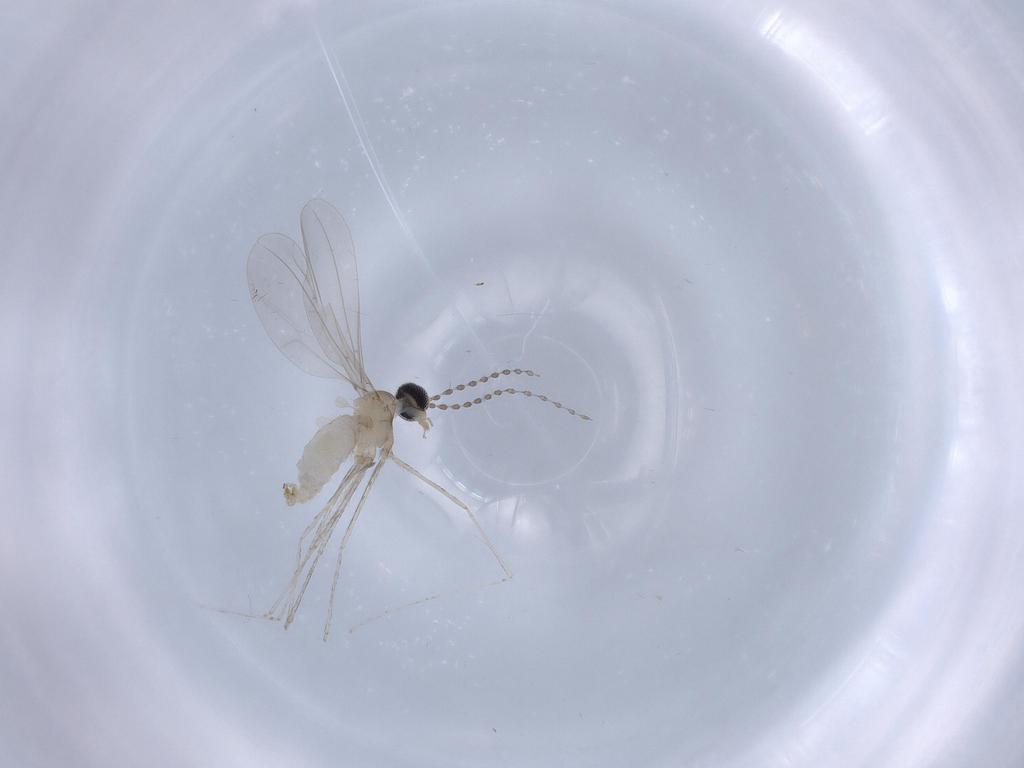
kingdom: Animalia
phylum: Arthropoda
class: Insecta
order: Diptera
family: Cecidomyiidae
